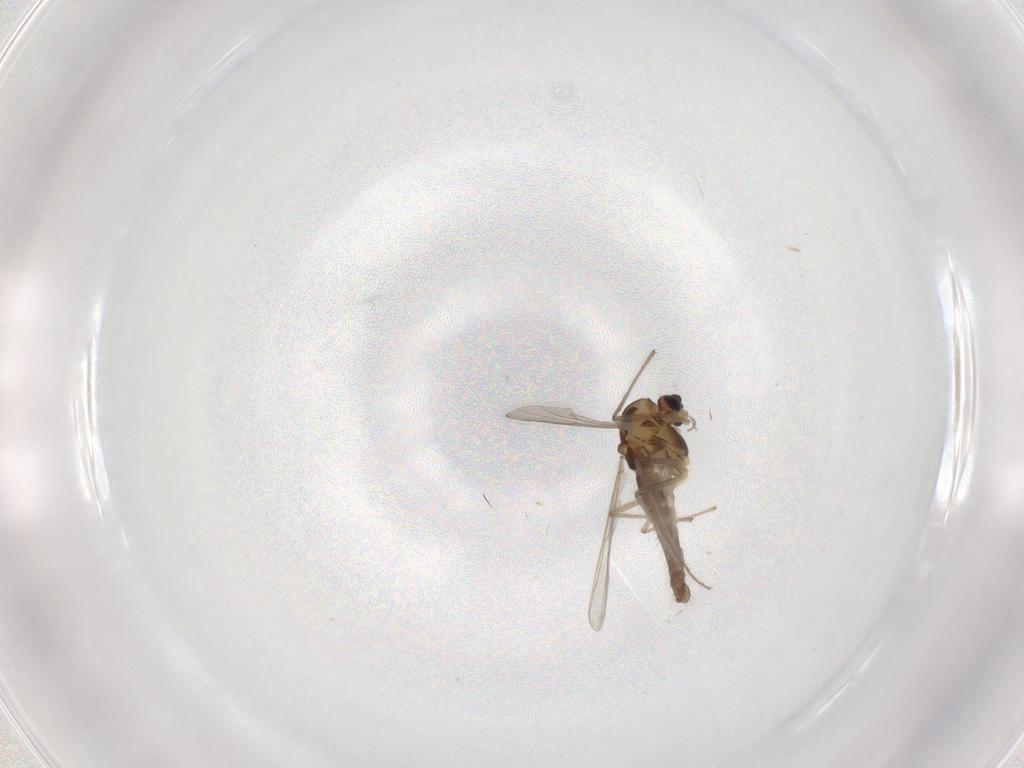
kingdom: Animalia
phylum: Arthropoda
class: Insecta
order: Diptera
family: Chironomidae
